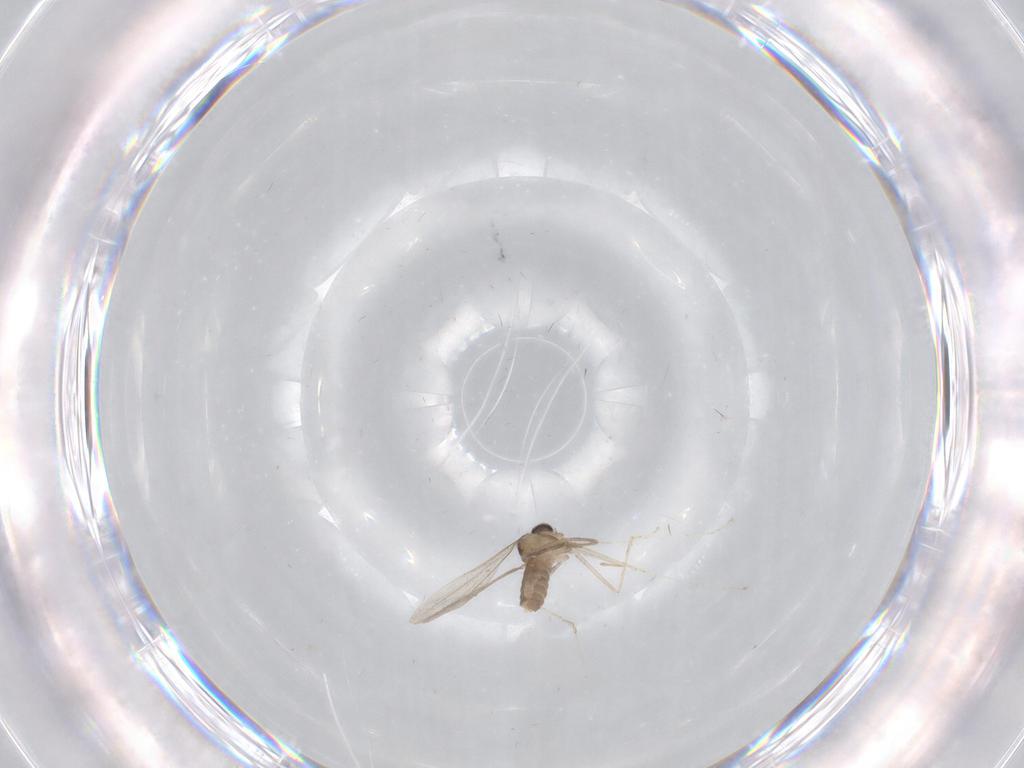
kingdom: Animalia
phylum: Arthropoda
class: Insecta
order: Diptera
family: Cecidomyiidae
